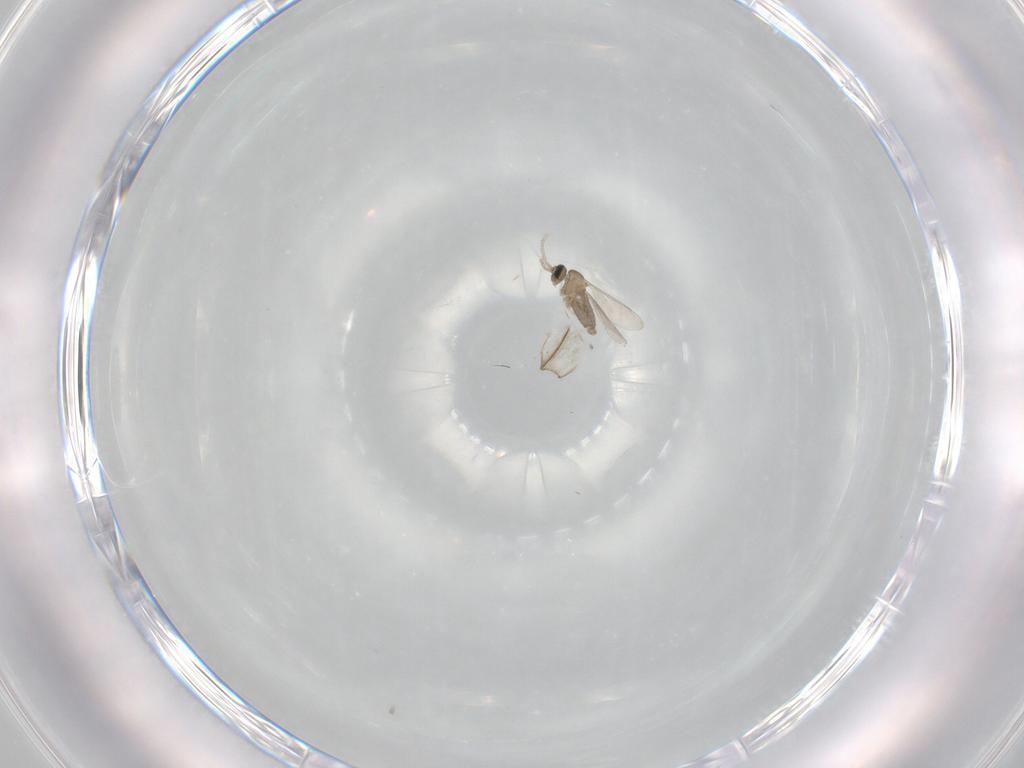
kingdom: Animalia
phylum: Arthropoda
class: Insecta
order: Diptera
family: Cecidomyiidae
